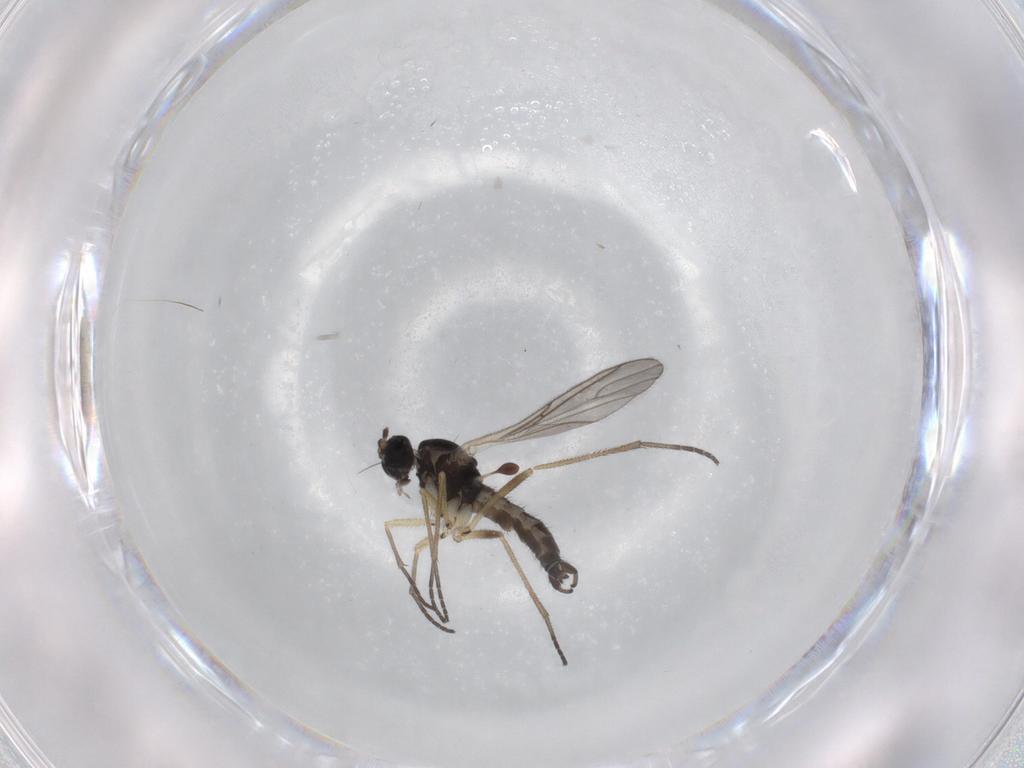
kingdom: Animalia
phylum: Arthropoda
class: Insecta
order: Diptera
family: Sciaridae
